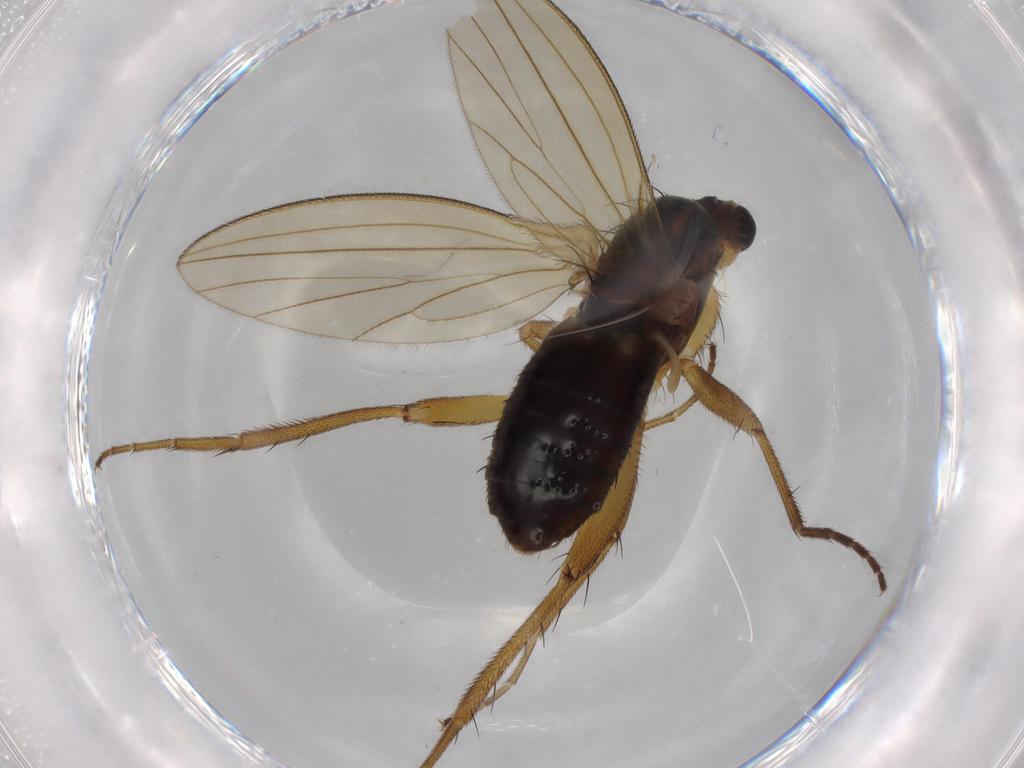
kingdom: Animalia
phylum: Arthropoda
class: Insecta
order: Diptera
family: Lonchopteridae
